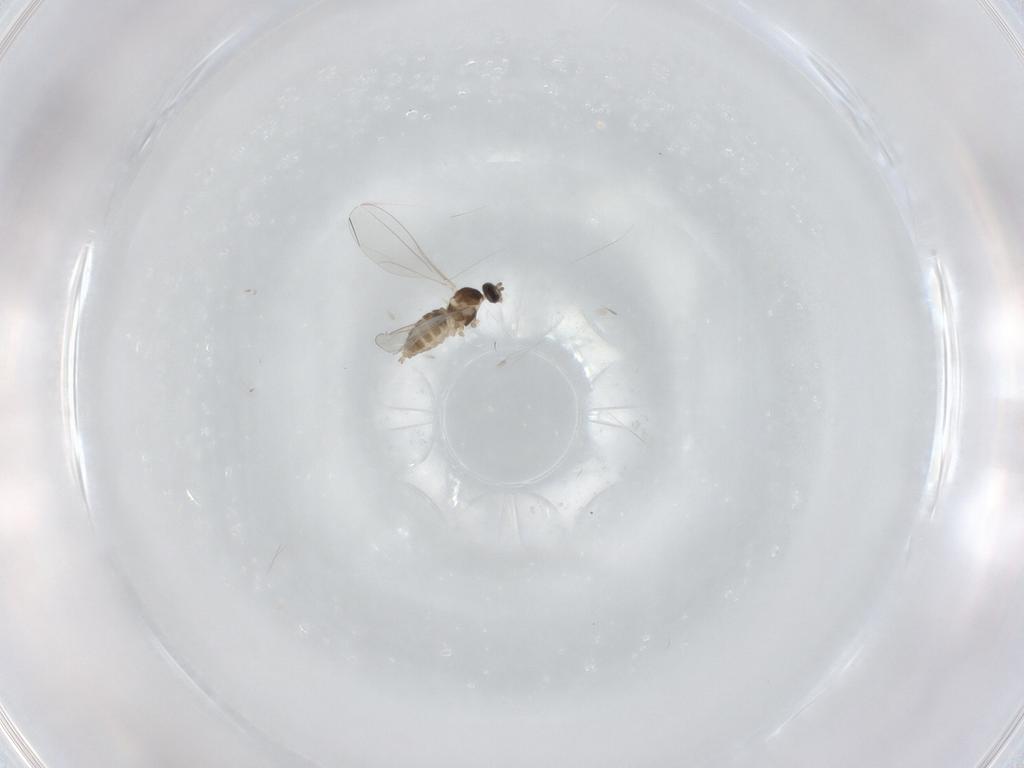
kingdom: Animalia
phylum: Arthropoda
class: Insecta
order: Diptera
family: Cecidomyiidae
